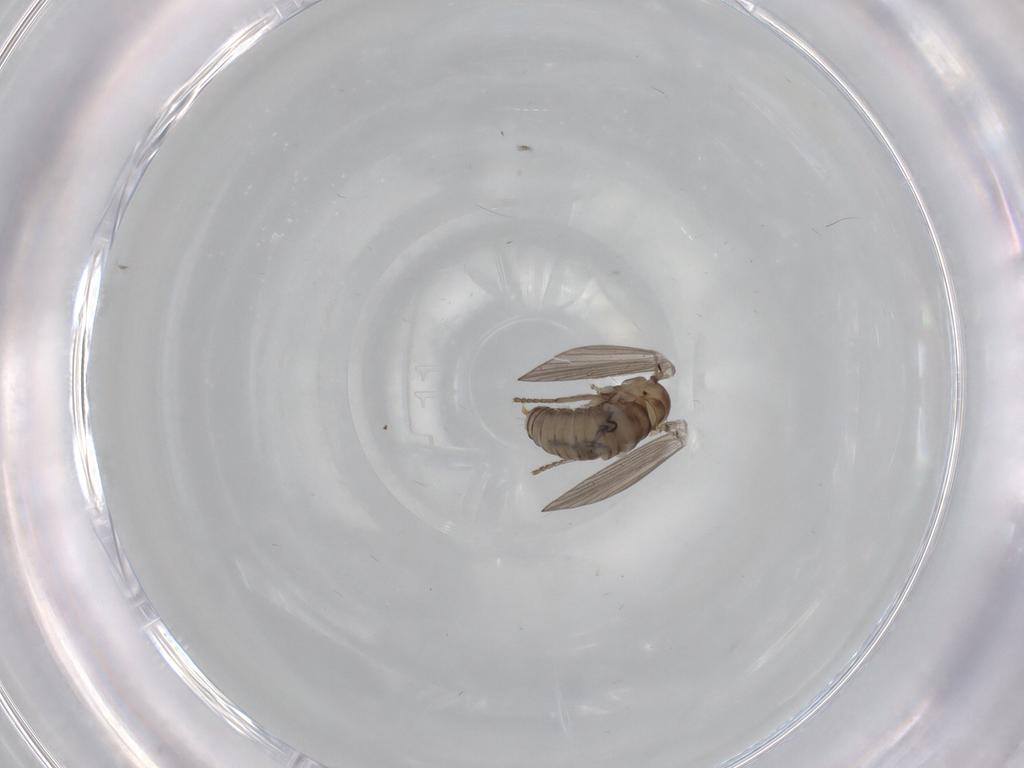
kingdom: Animalia
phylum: Arthropoda
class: Insecta
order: Diptera
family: Psychodidae
